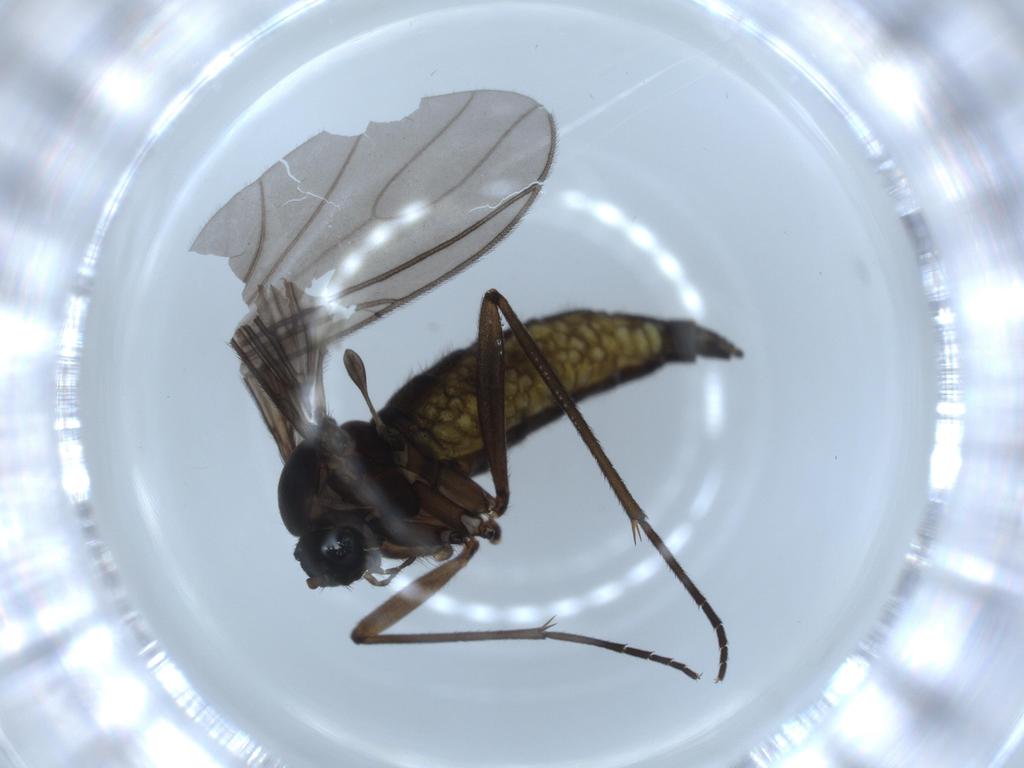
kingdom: Animalia
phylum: Arthropoda
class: Insecta
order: Diptera
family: Sciaridae
